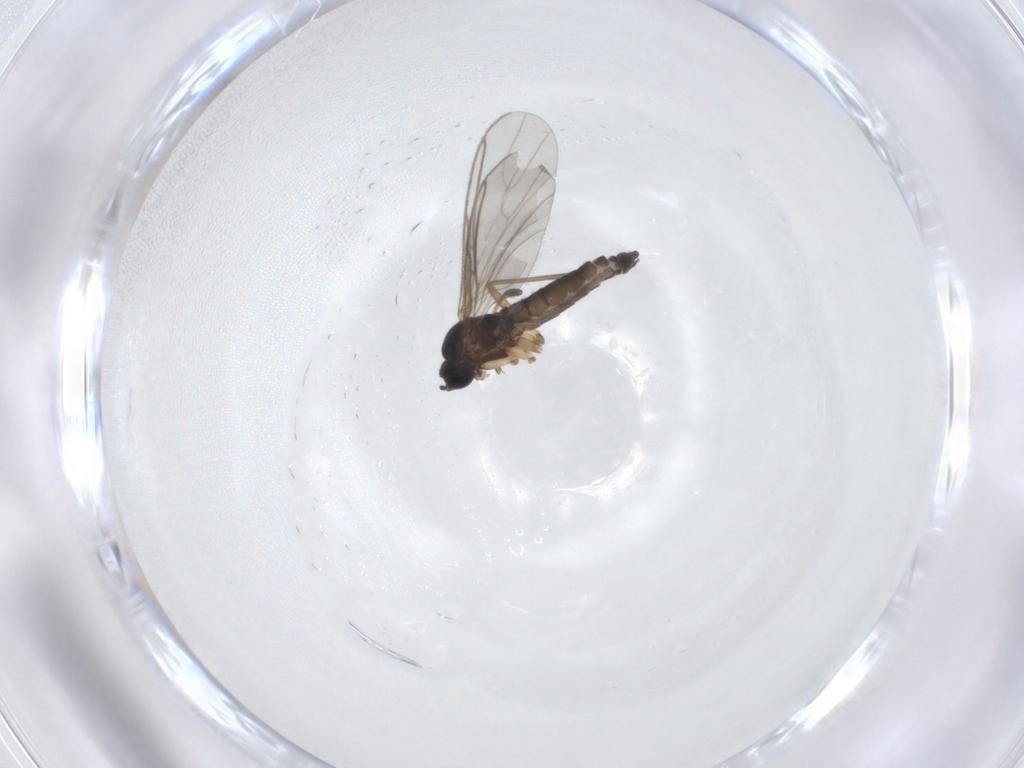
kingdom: Animalia
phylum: Arthropoda
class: Insecta
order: Diptera
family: Sciaridae
